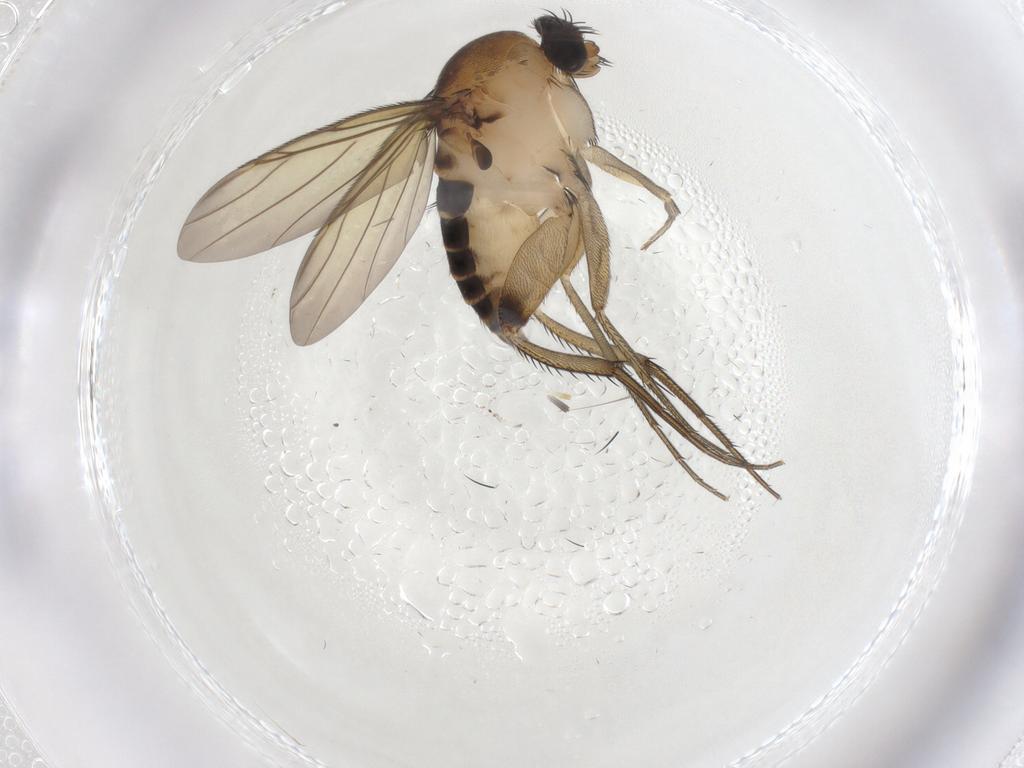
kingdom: Animalia
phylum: Arthropoda
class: Insecta
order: Diptera
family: Phoridae
